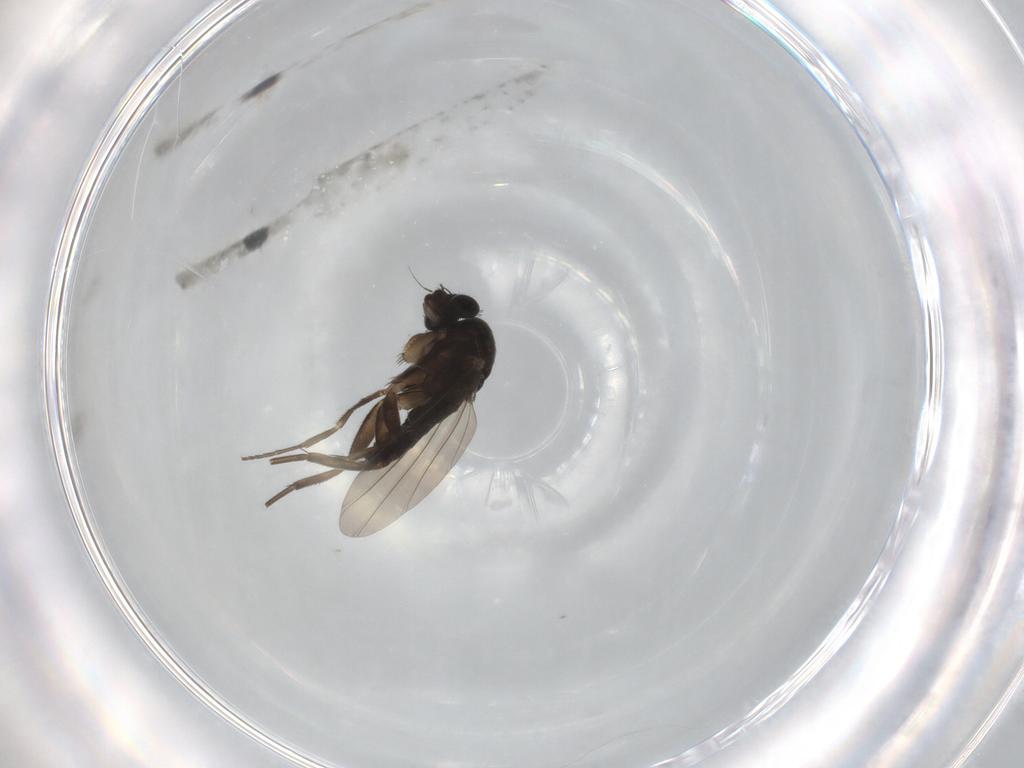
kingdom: Animalia
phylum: Arthropoda
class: Insecta
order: Diptera
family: Phoridae
